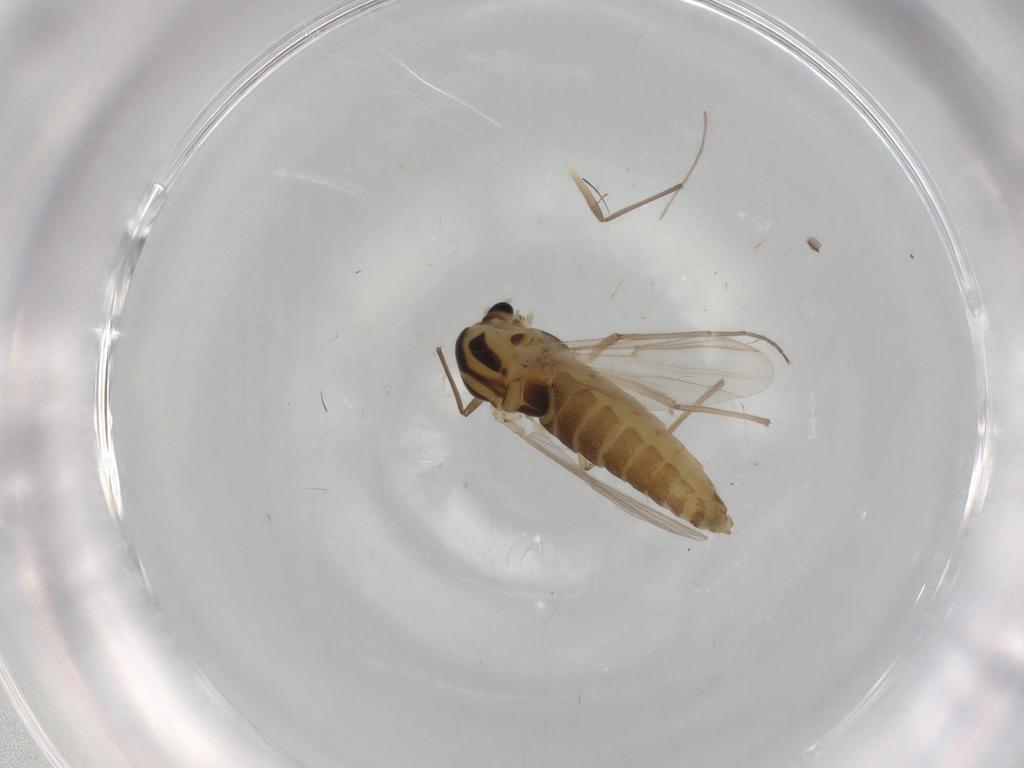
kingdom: Animalia
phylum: Arthropoda
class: Insecta
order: Diptera
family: Chironomidae
